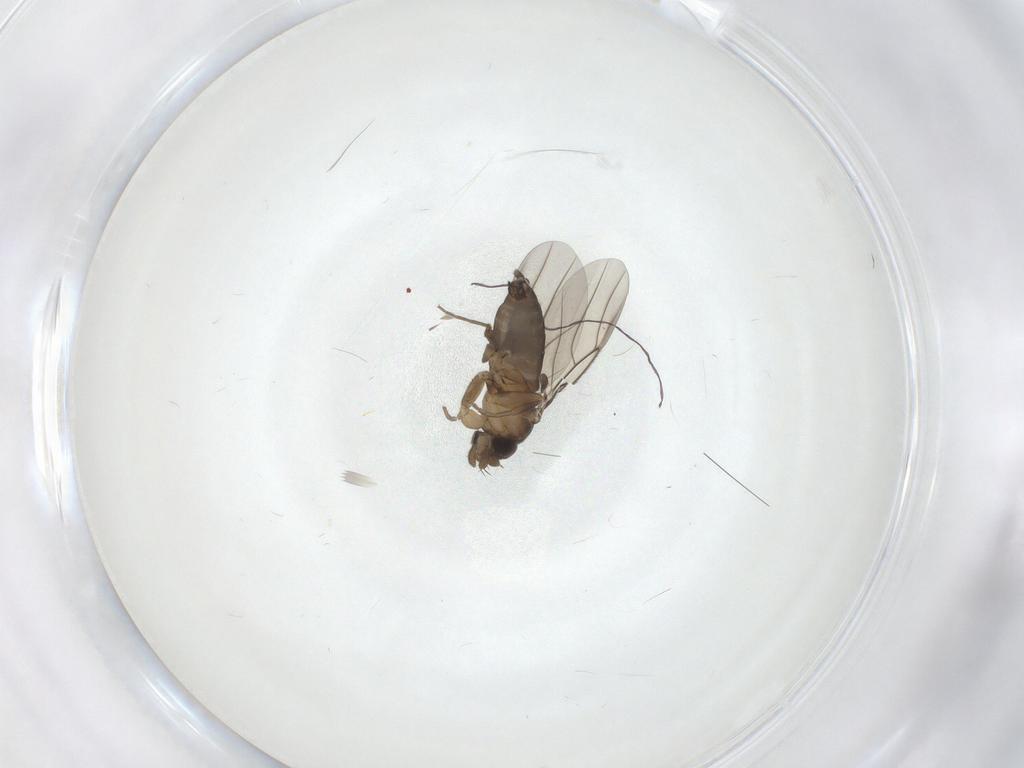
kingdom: Animalia
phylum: Arthropoda
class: Insecta
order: Diptera
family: Phoridae
